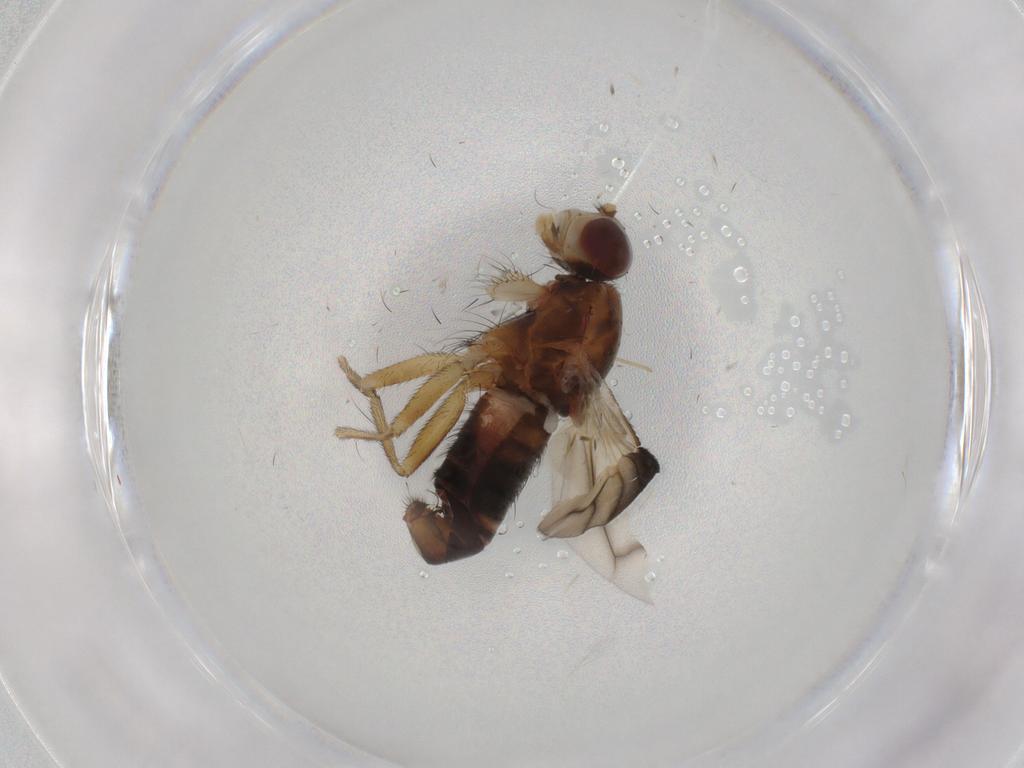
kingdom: Animalia
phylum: Arthropoda
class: Insecta
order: Diptera
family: Heleomyzidae
